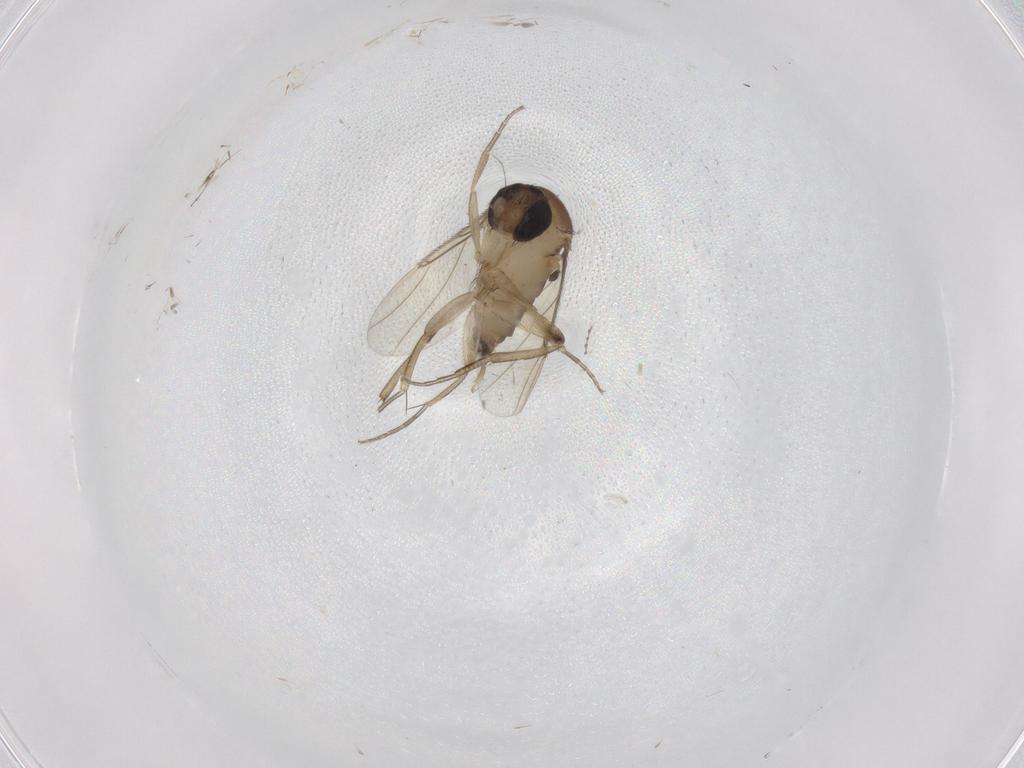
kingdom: Animalia
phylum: Arthropoda
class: Insecta
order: Diptera
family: Phoridae
